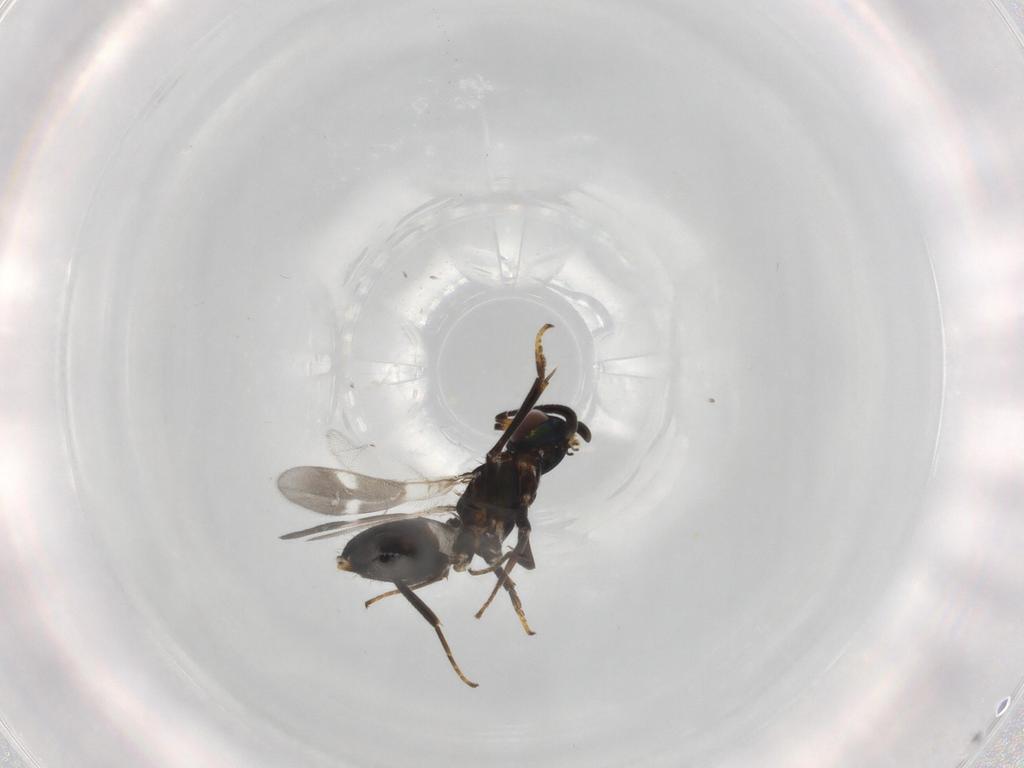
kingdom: Animalia
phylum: Arthropoda
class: Insecta
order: Hymenoptera
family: Eupelmidae
